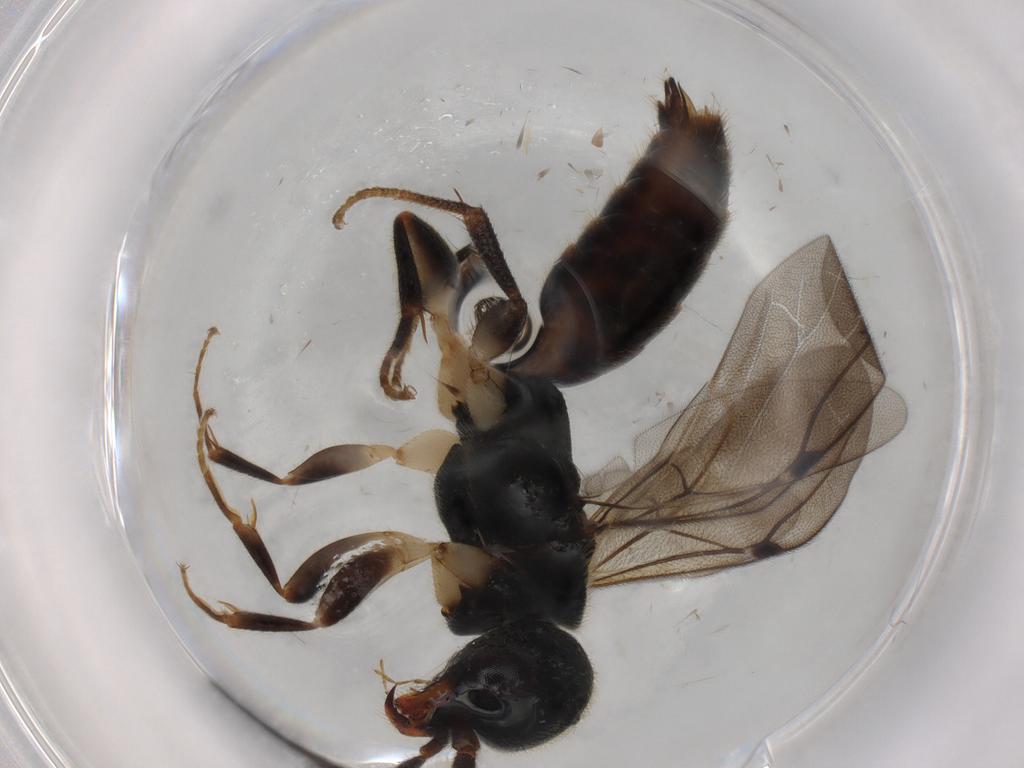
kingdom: Animalia
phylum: Arthropoda
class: Insecta
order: Hymenoptera
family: Bethylidae
